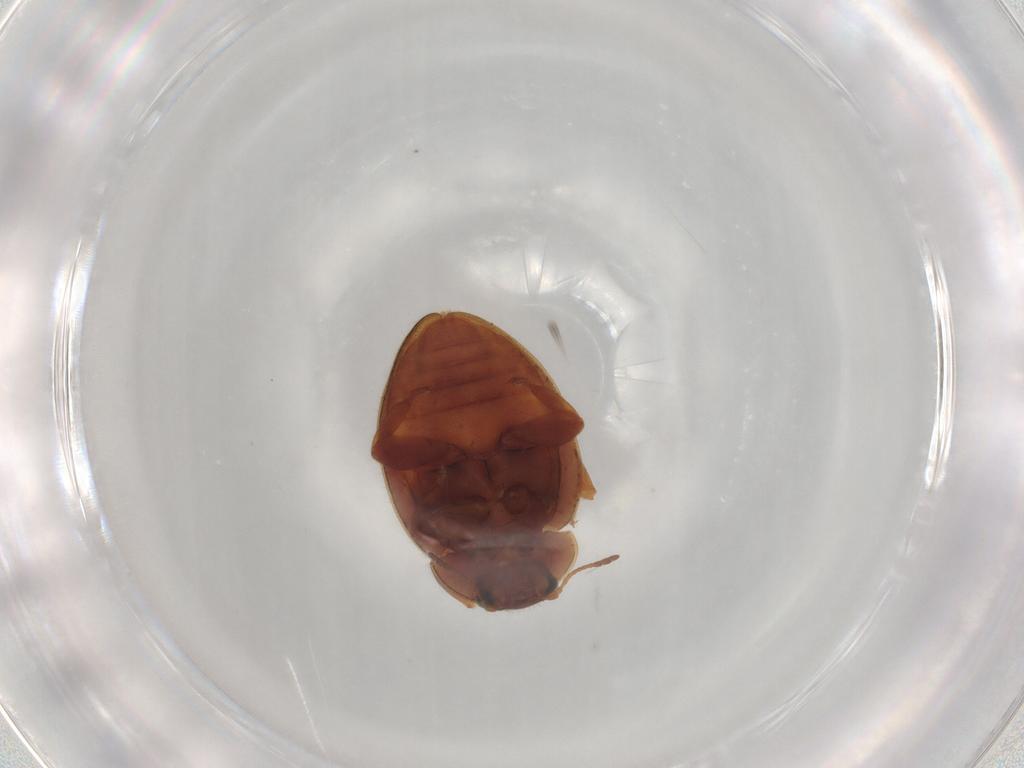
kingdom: Animalia
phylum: Arthropoda
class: Insecta
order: Coleoptera
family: Coccinellidae
